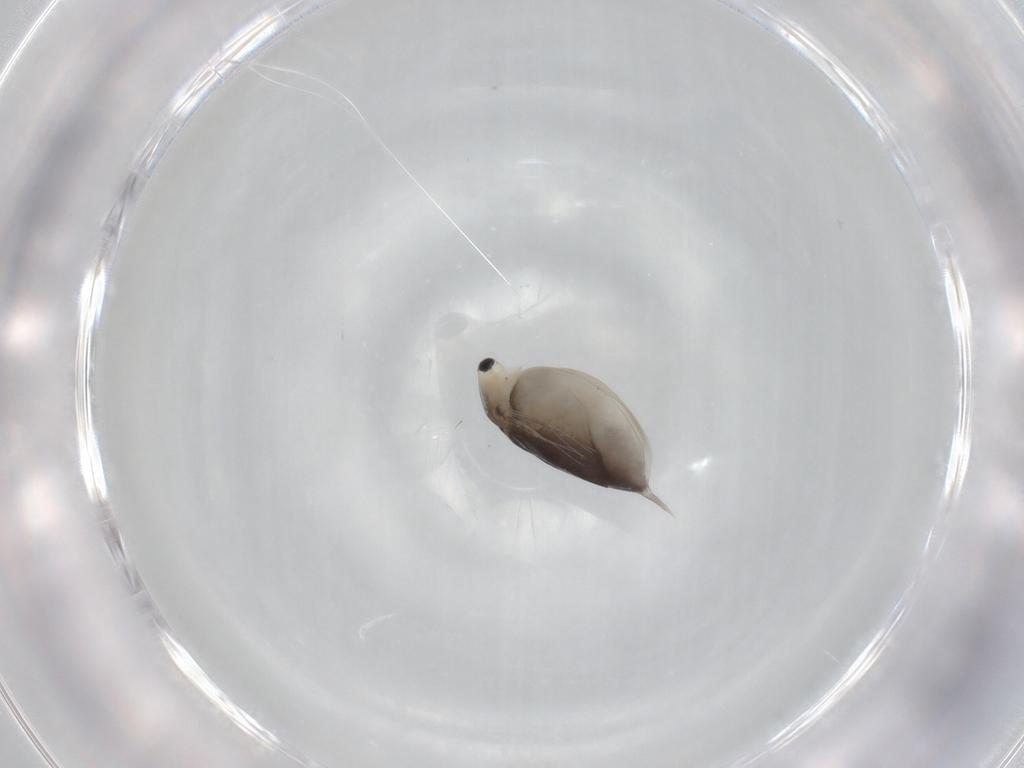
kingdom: Animalia
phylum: Arthropoda
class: Branchiopoda
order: Diplostraca
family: Daphniidae
